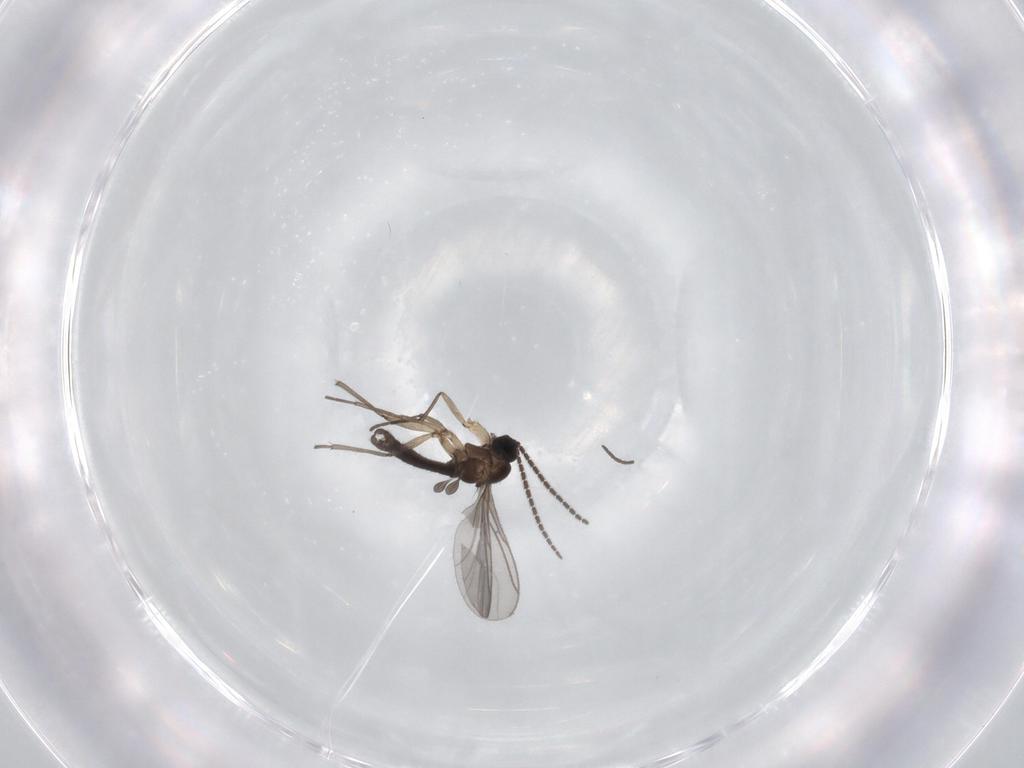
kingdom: Animalia
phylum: Arthropoda
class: Insecta
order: Diptera
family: Sciaridae
